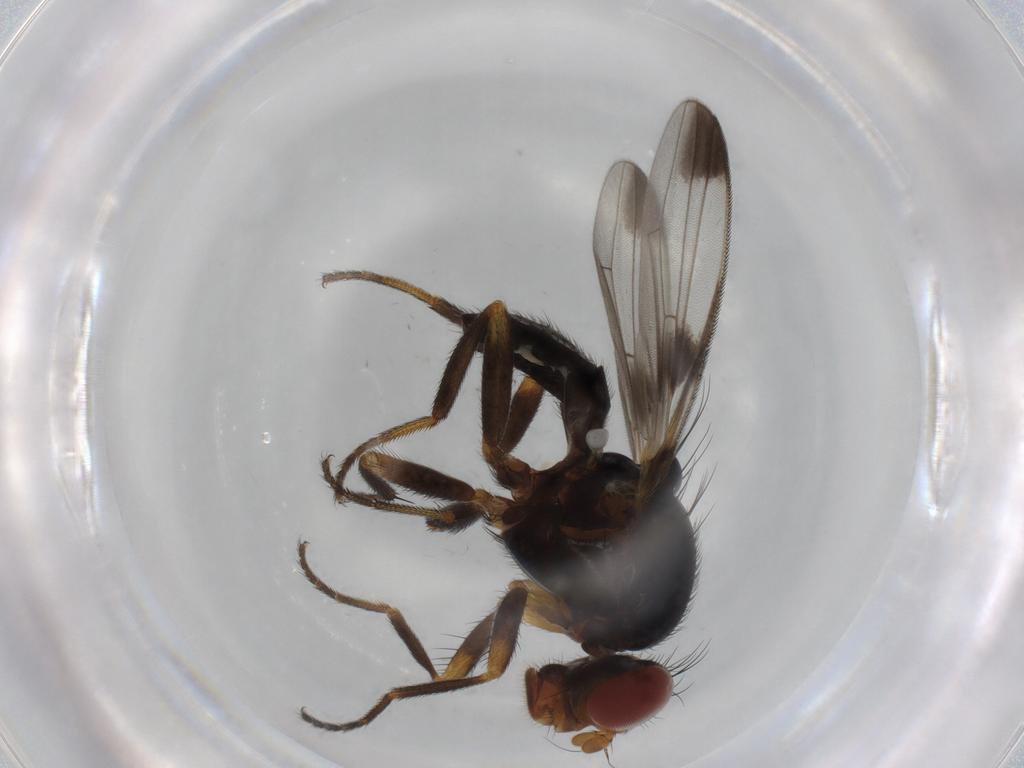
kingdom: Animalia
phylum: Arthropoda
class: Insecta
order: Diptera
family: Ulidiidae
